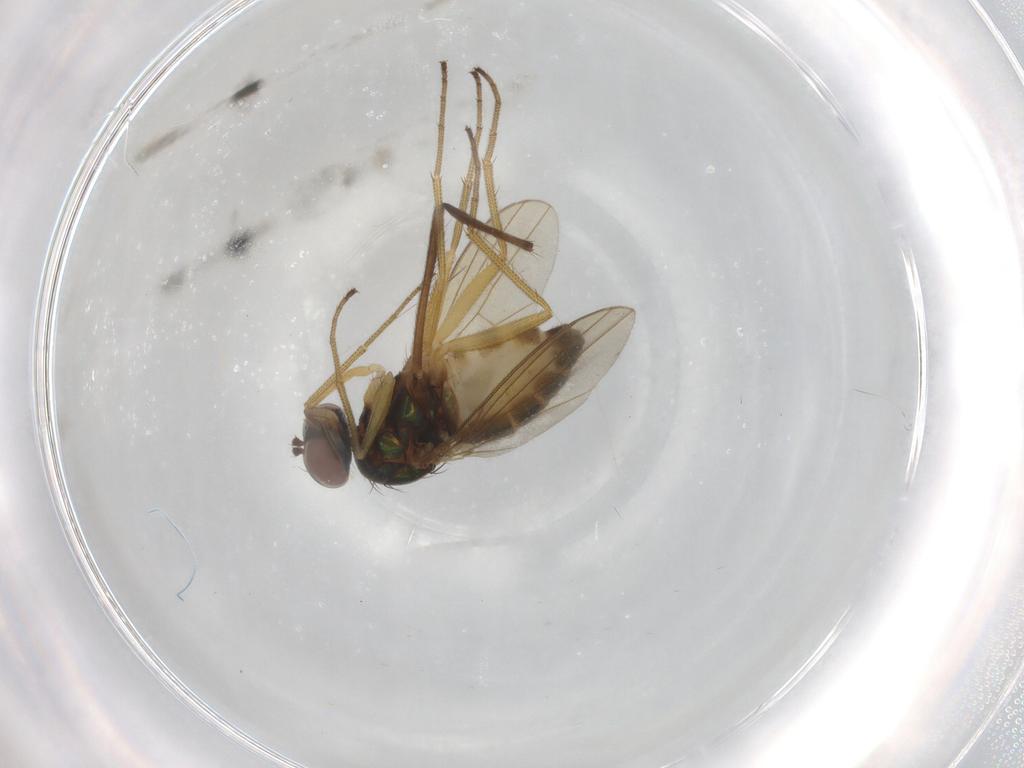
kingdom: Animalia
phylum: Arthropoda
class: Insecta
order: Diptera
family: Dolichopodidae
